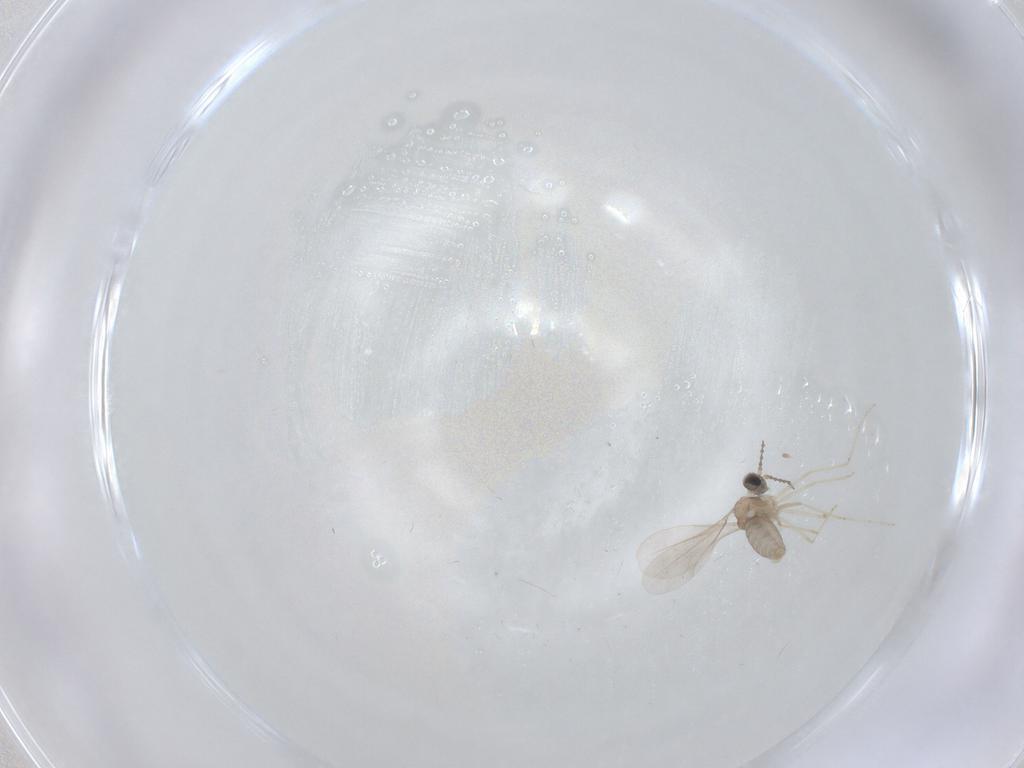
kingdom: Animalia
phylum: Arthropoda
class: Insecta
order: Diptera
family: Cecidomyiidae
